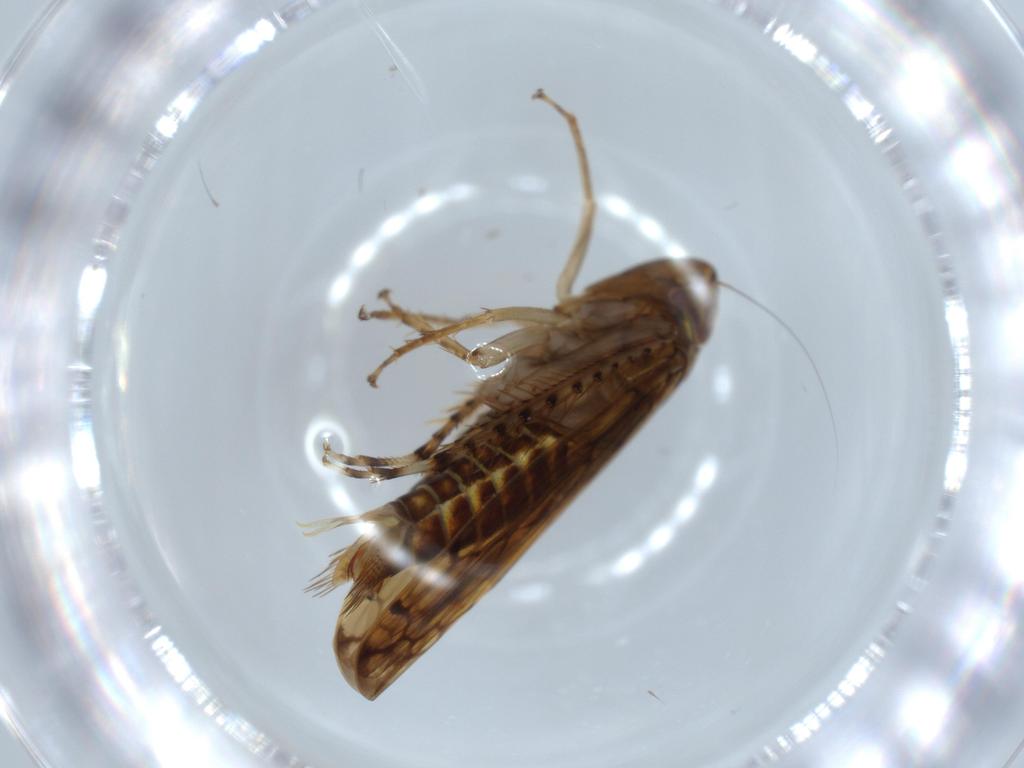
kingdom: Animalia
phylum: Arthropoda
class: Insecta
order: Hemiptera
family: Cicadellidae
